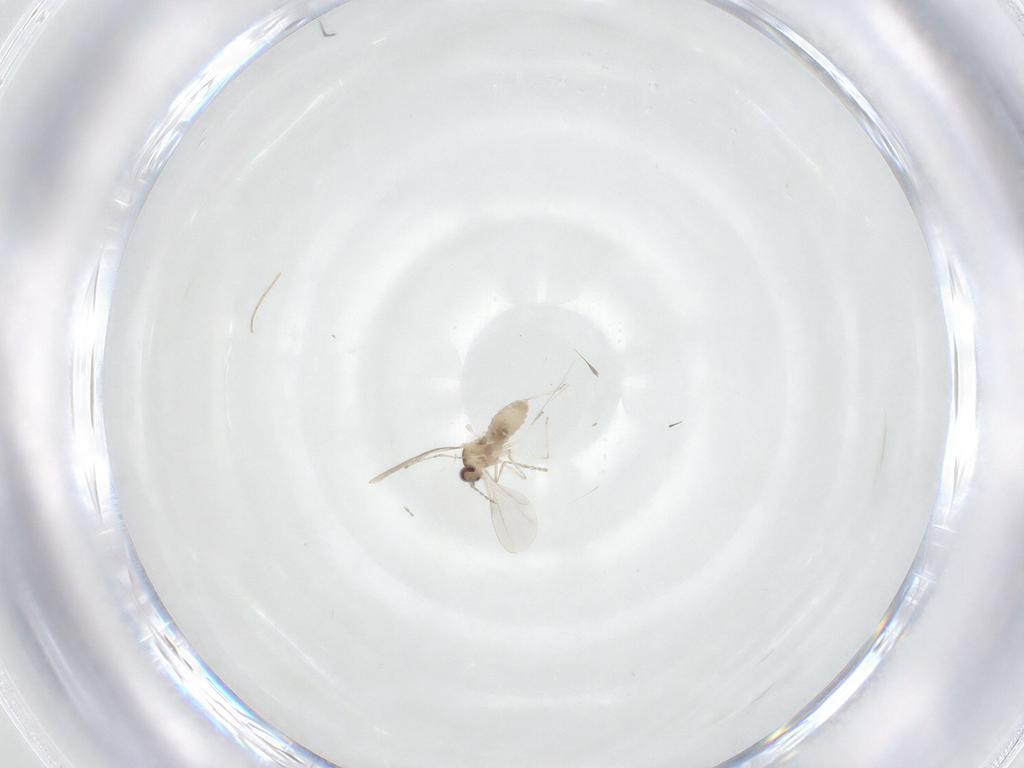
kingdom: Animalia
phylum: Arthropoda
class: Insecta
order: Diptera
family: Cecidomyiidae
